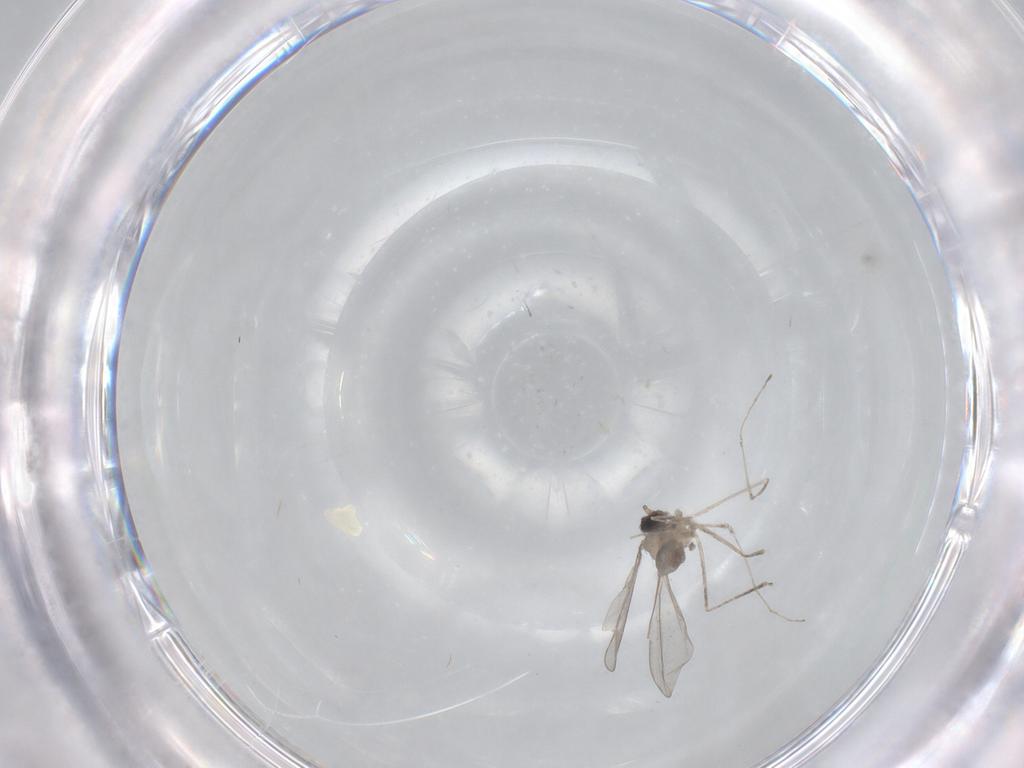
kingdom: Animalia
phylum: Arthropoda
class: Insecta
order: Diptera
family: Cecidomyiidae
